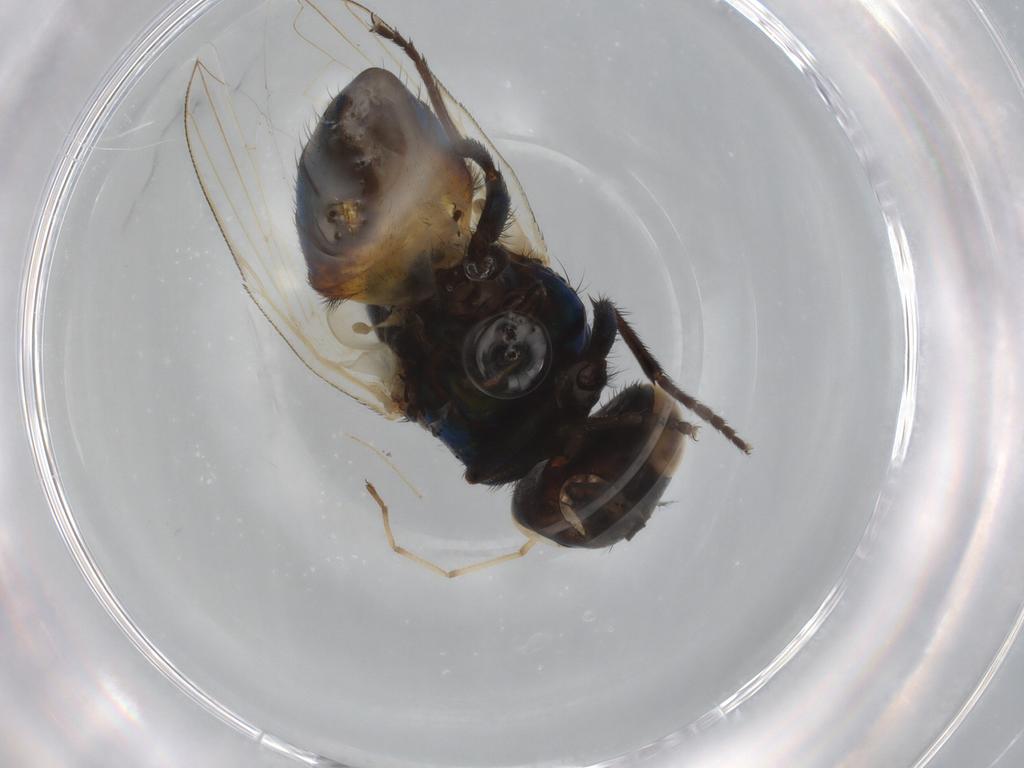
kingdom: Animalia
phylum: Arthropoda
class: Insecta
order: Diptera
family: Muscidae
